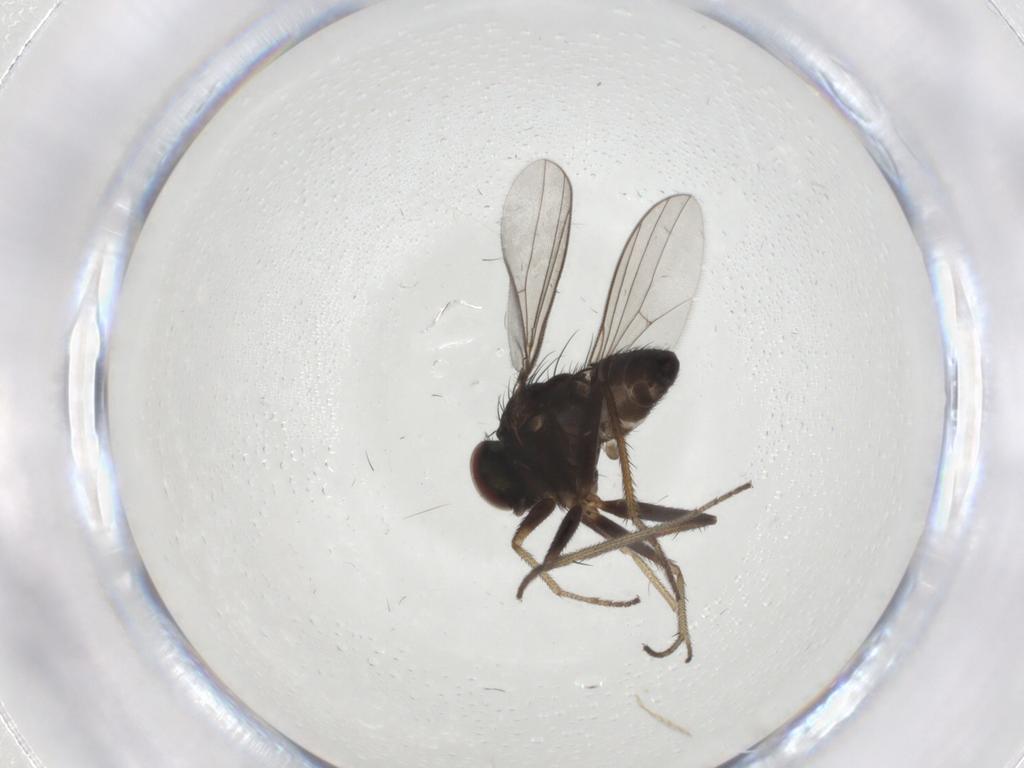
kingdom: Animalia
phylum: Arthropoda
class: Insecta
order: Diptera
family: Dolichopodidae
